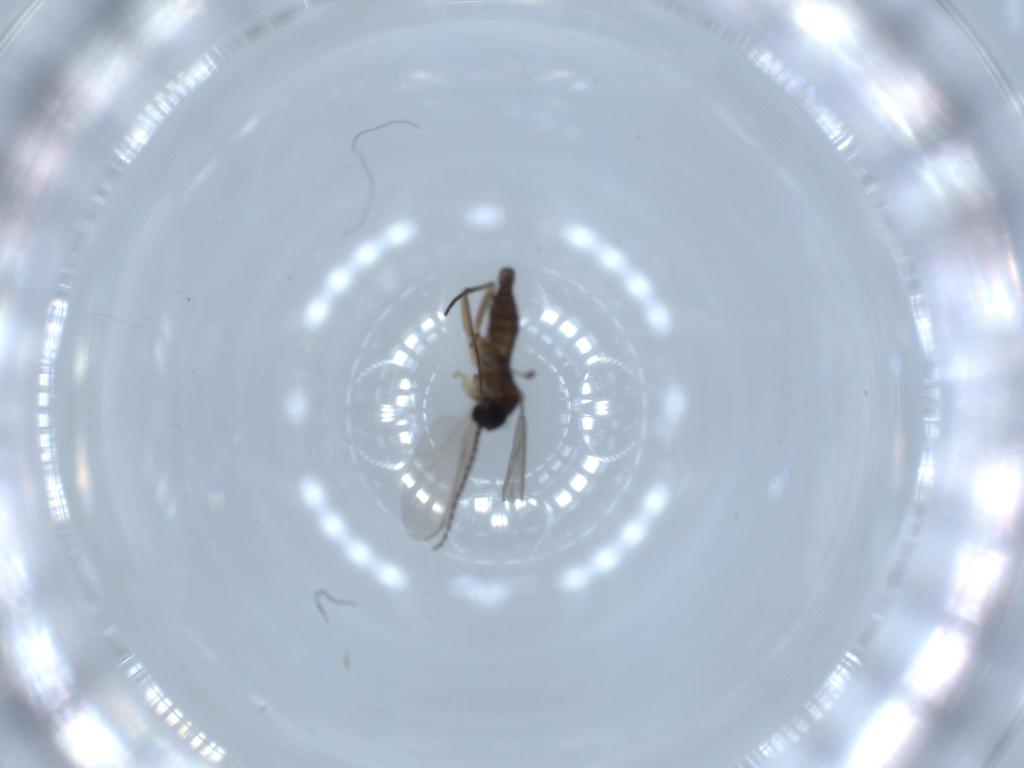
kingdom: Animalia
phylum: Arthropoda
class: Insecta
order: Diptera
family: Sciaridae
